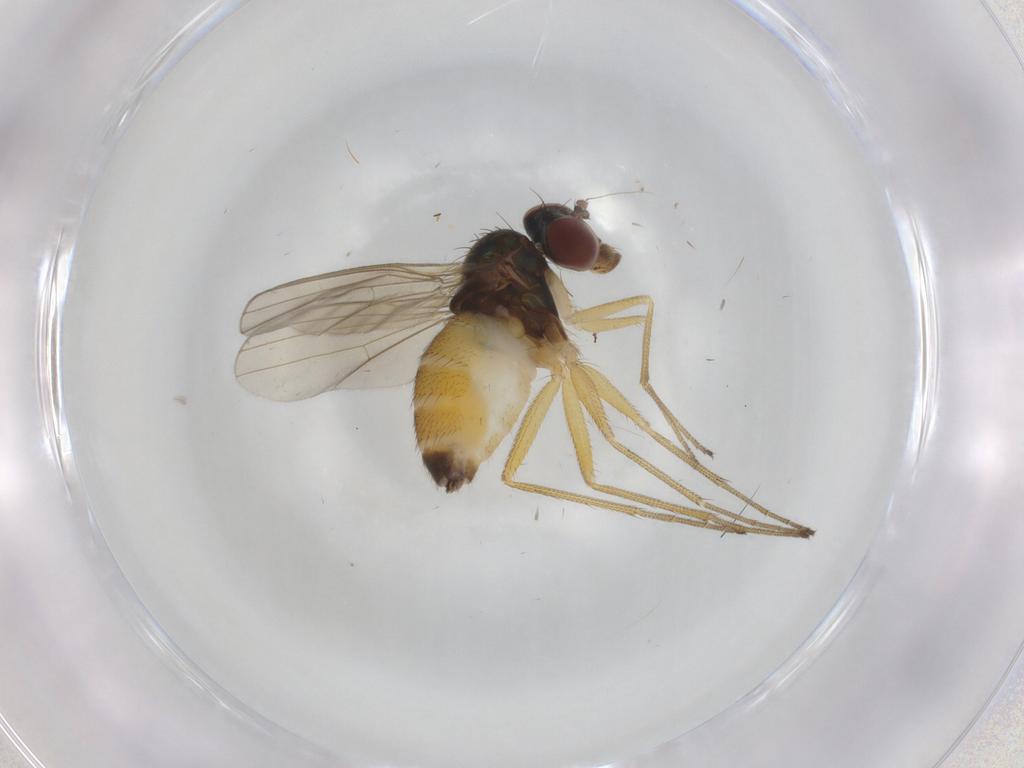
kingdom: Animalia
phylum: Arthropoda
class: Insecta
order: Diptera
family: Dolichopodidae
